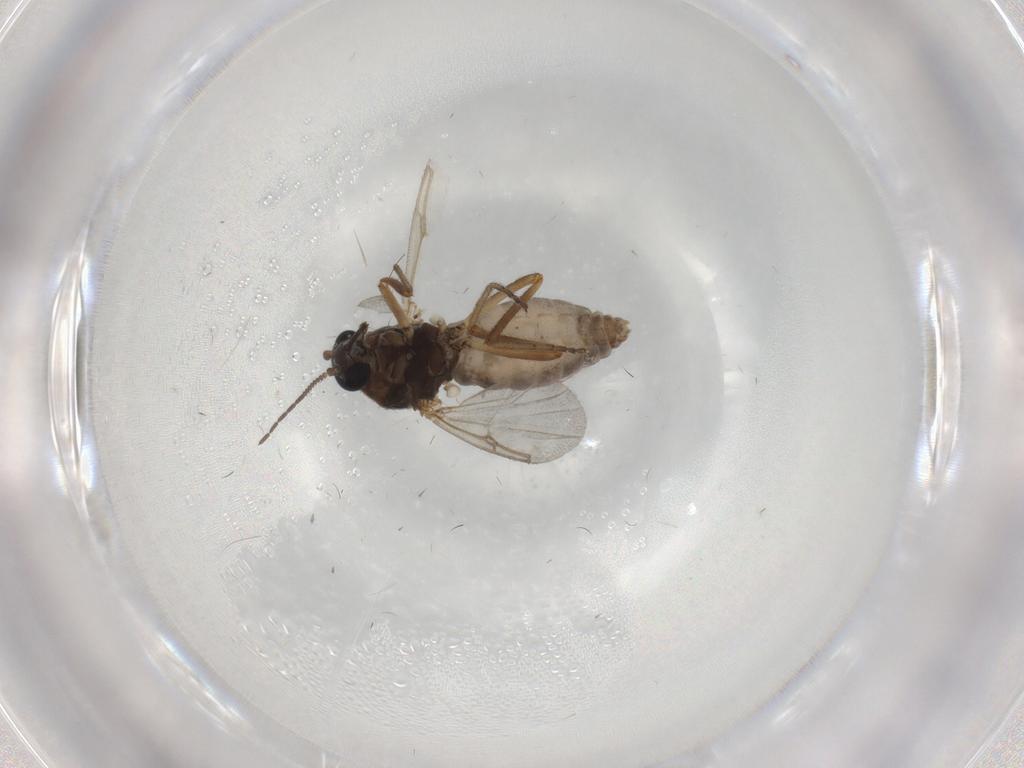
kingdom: Animalia
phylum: Arthropoda
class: Insecta
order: Diptera
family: Ceratopogonidae
